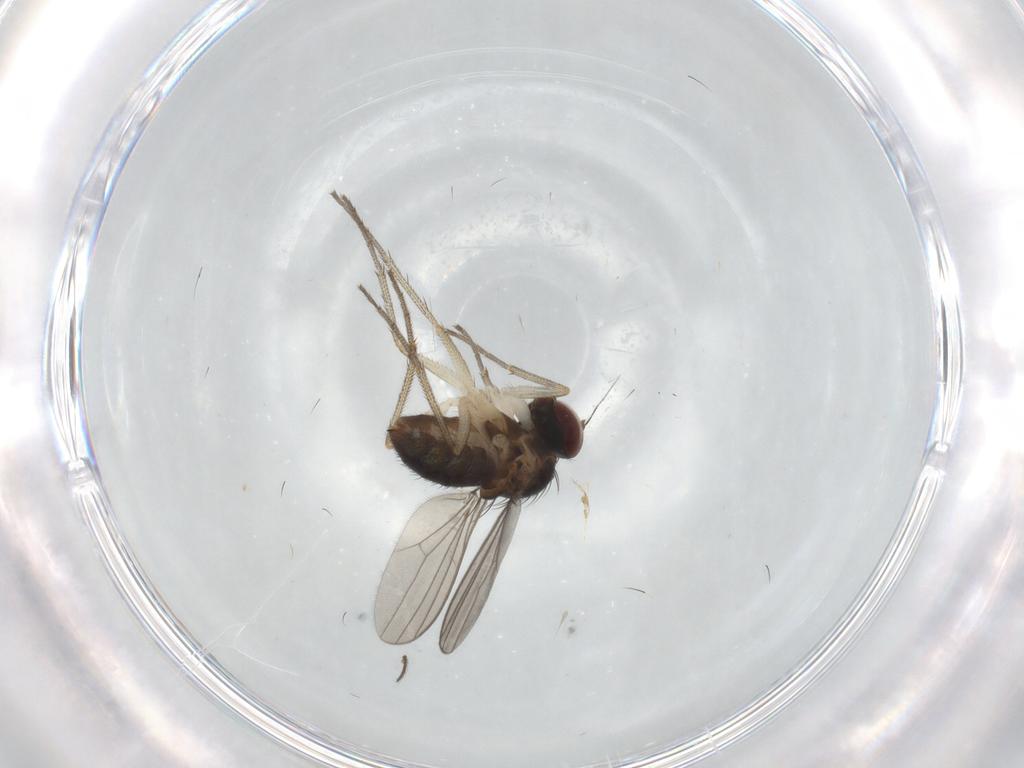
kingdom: Animalia
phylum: Arthropoda
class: Insecta
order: Diptera
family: Dolichopodidae
